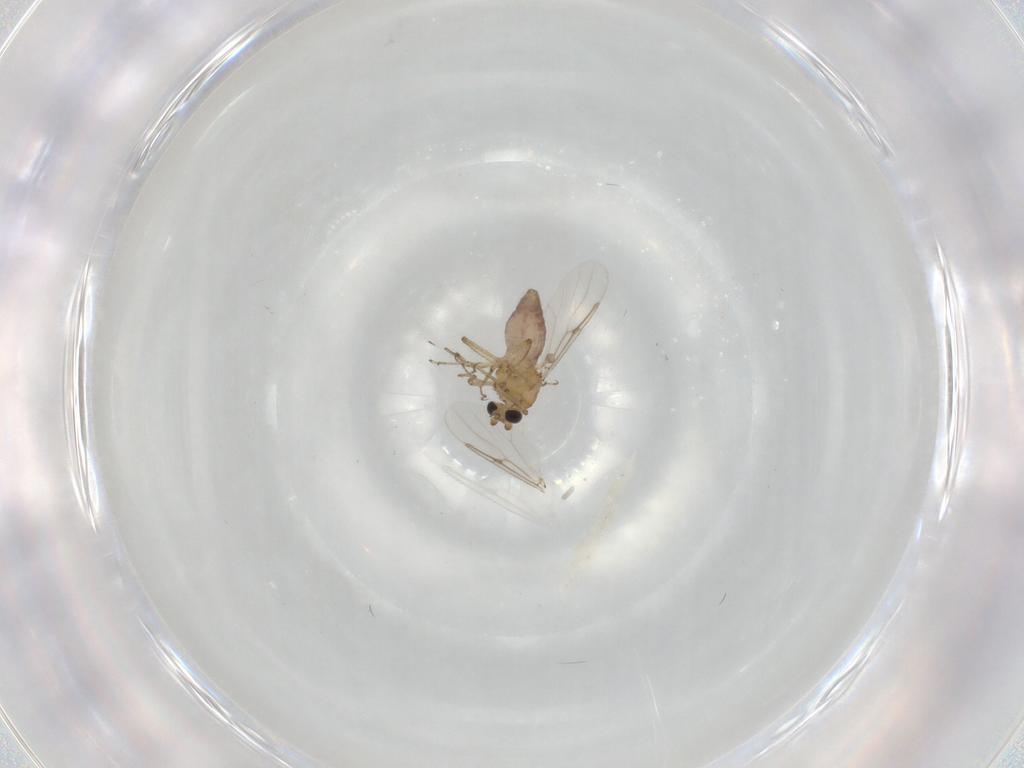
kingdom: Animalia
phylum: Arthropoda
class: Insecta
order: Diptera
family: Ceratopogonidae
